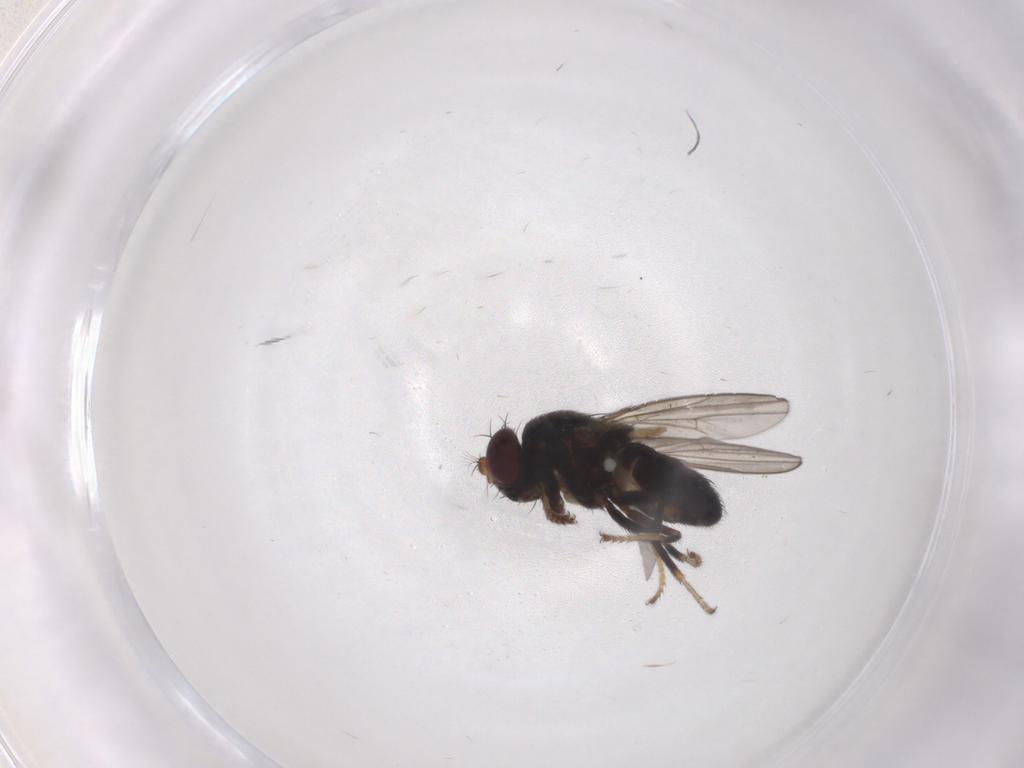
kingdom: Animalia
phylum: Arthropoda
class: Insecta
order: Diptera
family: Ephydridae
